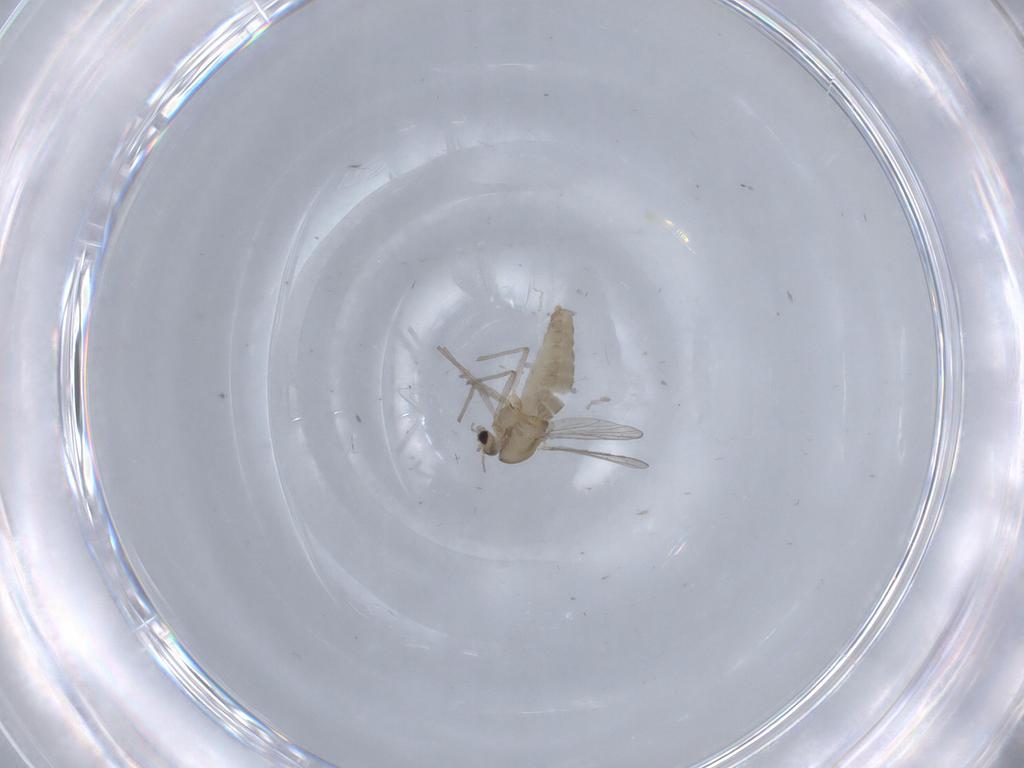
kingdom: Animalia
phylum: Arthropoda
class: Insecta
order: Diptera
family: Chironomidae
